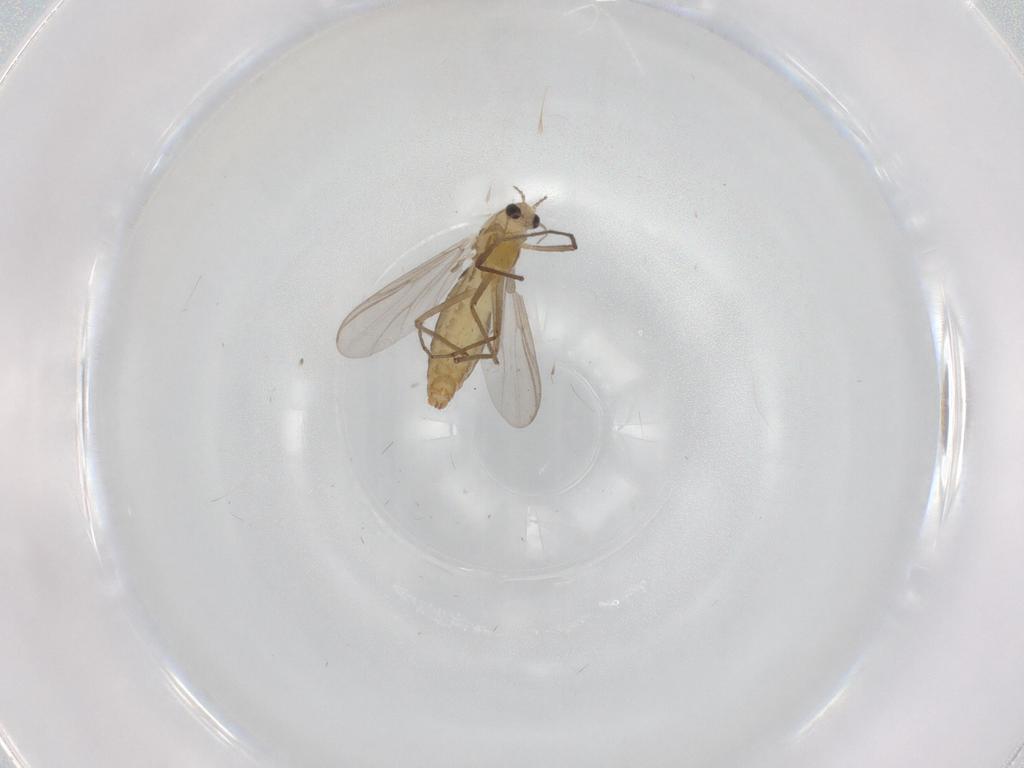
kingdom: Animalia
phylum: Arthropoda
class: Insecta
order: Diptera
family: Chironomidae
